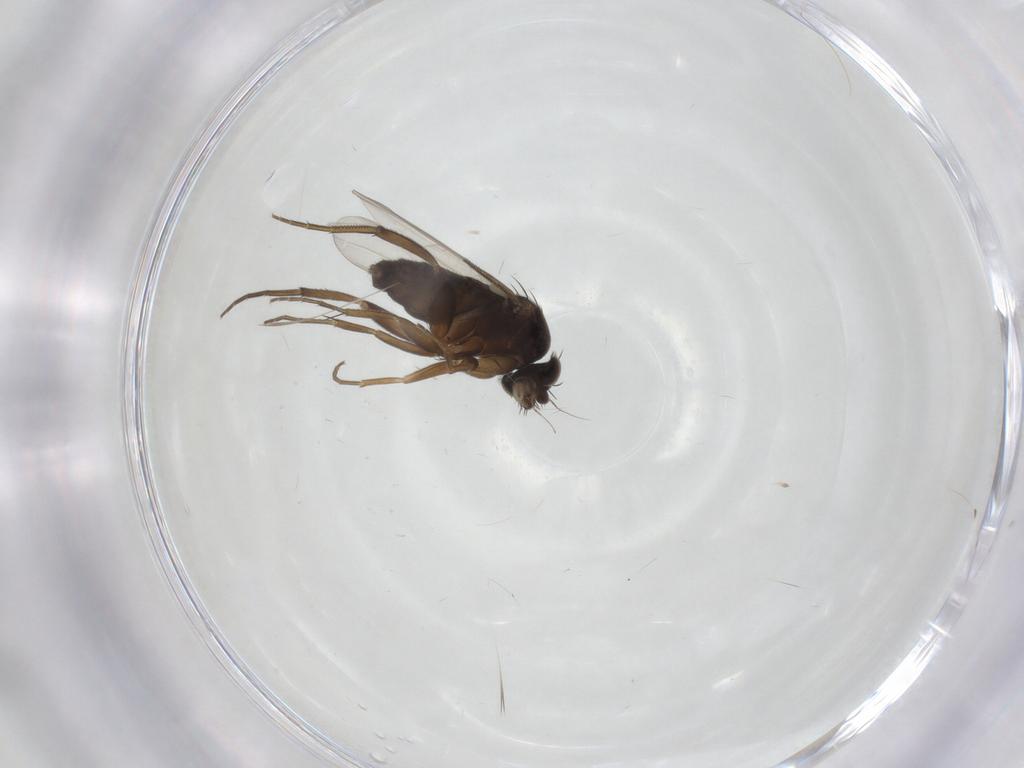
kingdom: Animalia
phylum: Arthropoda
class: Insecta
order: Diptera
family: Phoridae
